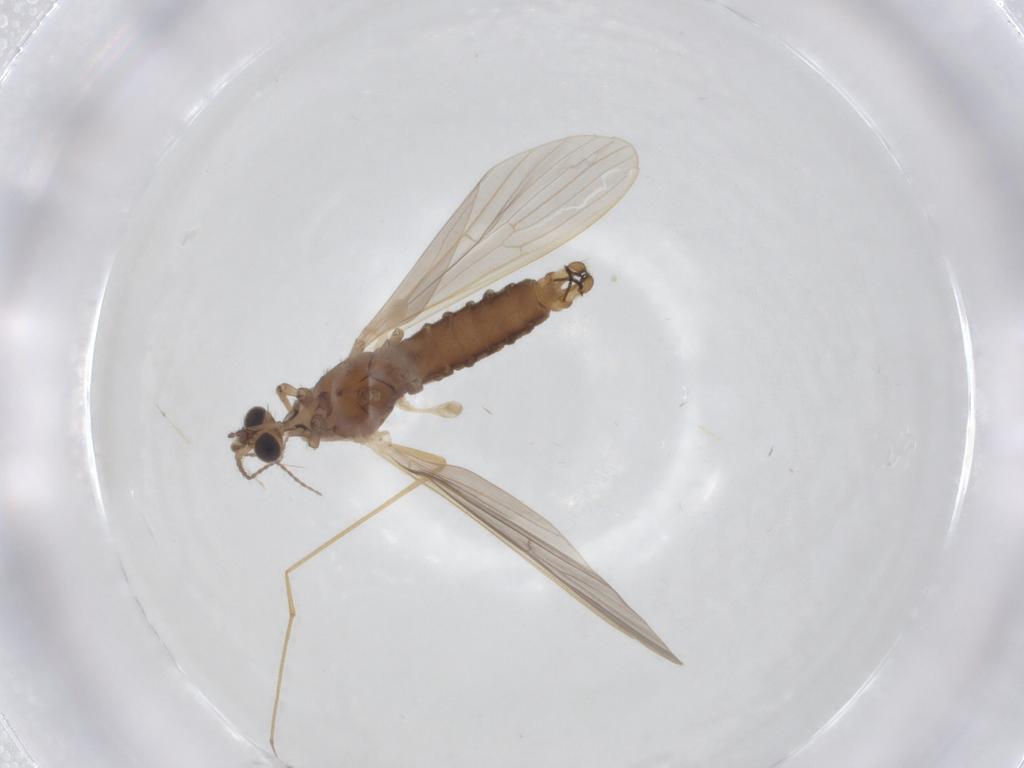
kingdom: Animalia
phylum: Arthropoda
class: Insecta
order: Diptera
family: Limoniidae
